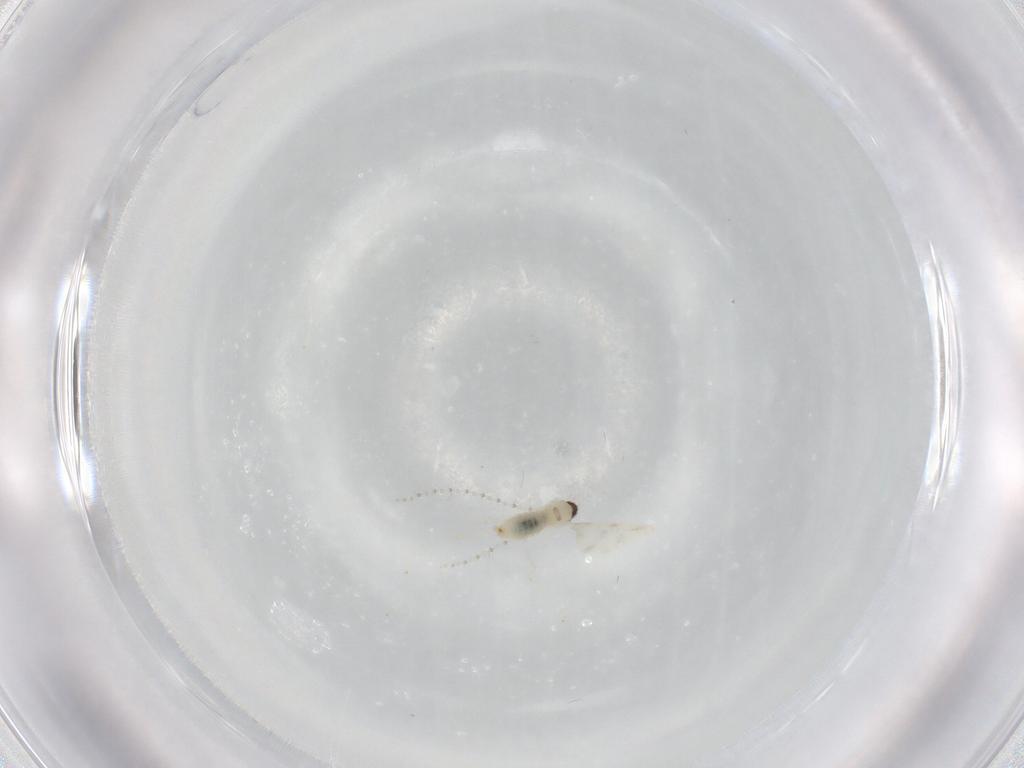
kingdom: Animalia
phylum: Arthropoda
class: Insecta
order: Diptera
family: Cecidomyiidae
